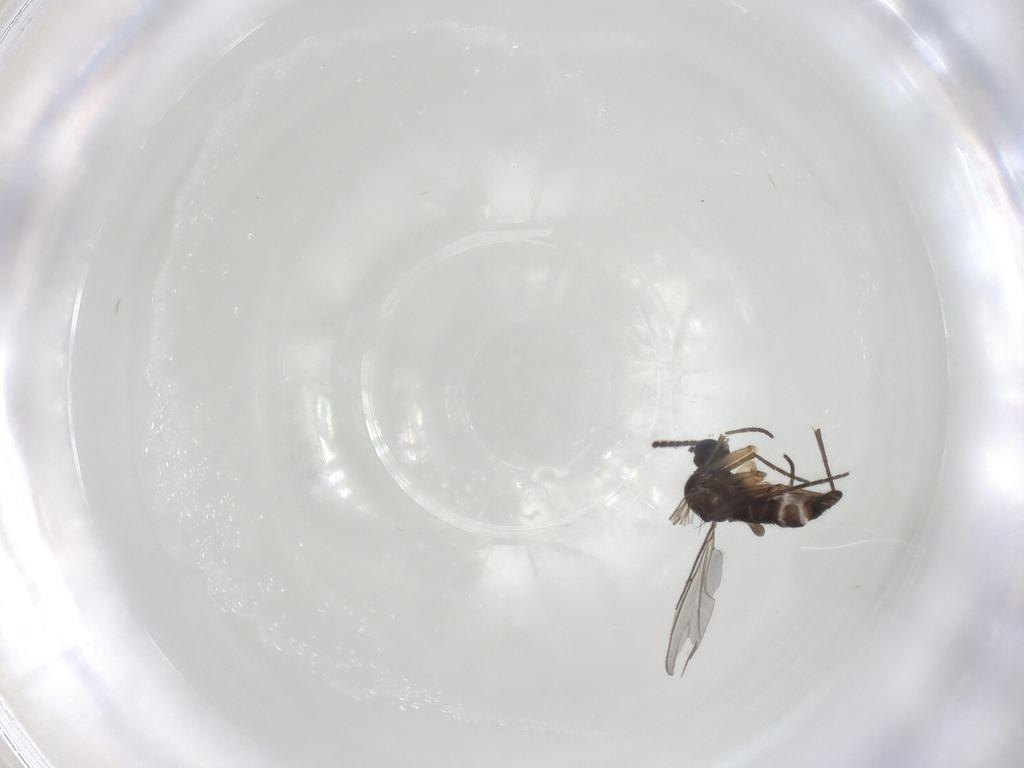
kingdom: Animalia
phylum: Arthropoda
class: Insecta
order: Diptera
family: Sciaridae
